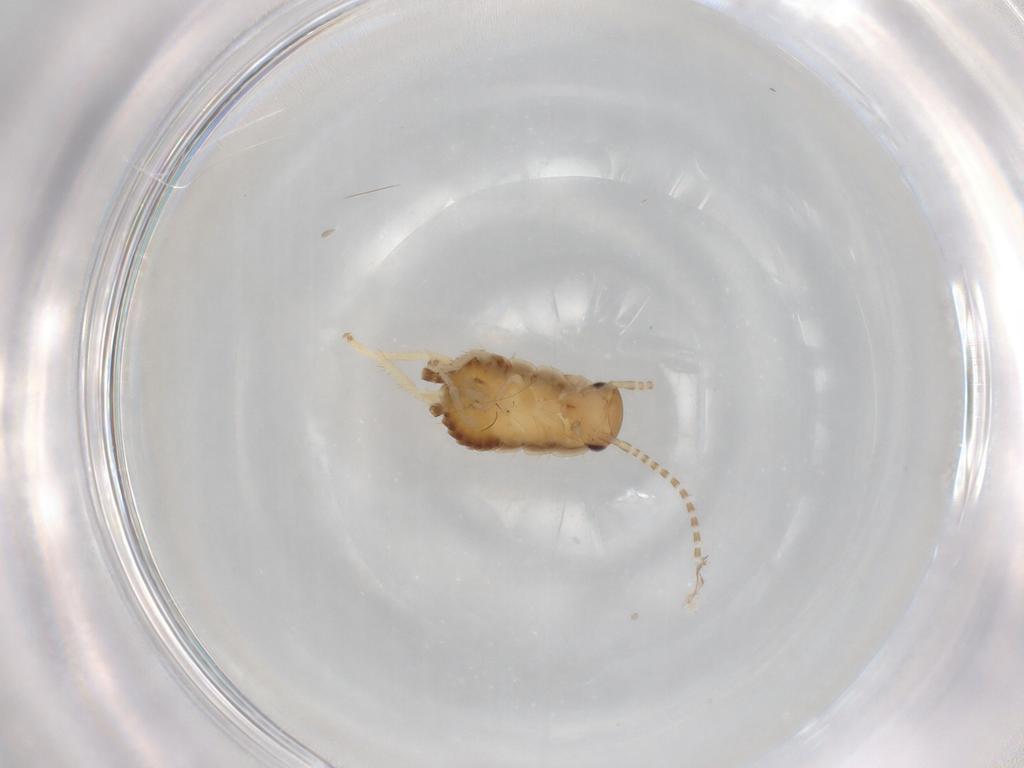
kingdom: Animalia
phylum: Arthropoda
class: Insecta
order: Blattodea
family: Ectobiidae
